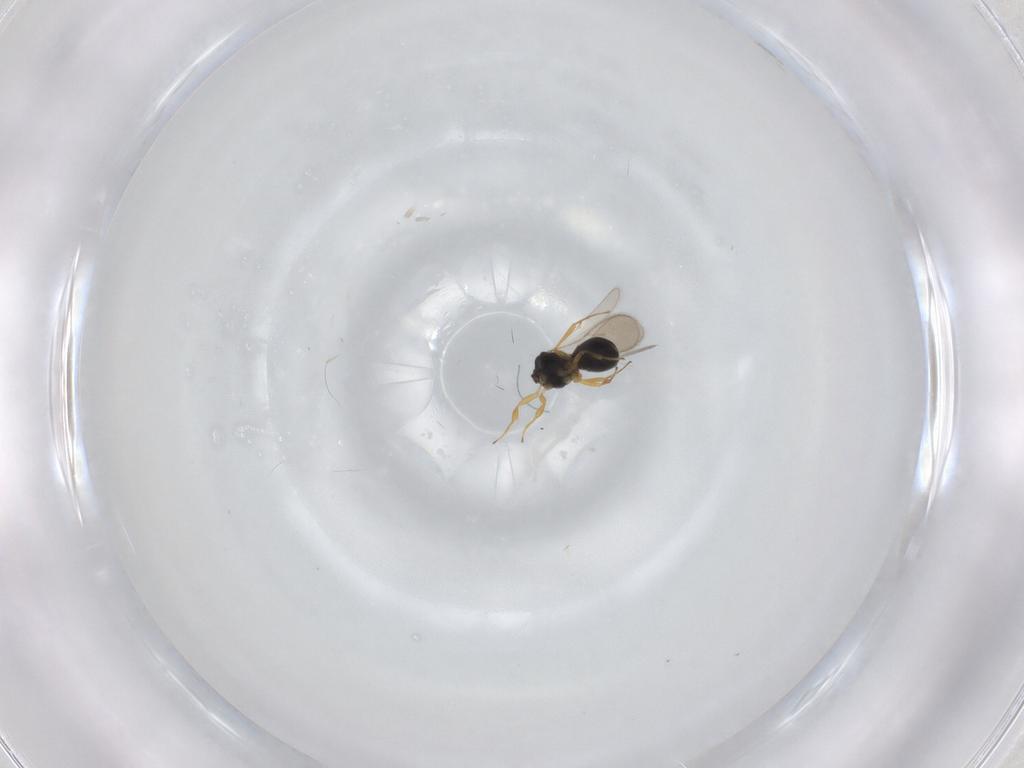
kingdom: Animalia
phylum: Arthropoda
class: Insecta
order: Hymenoptera
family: Scelionidae
